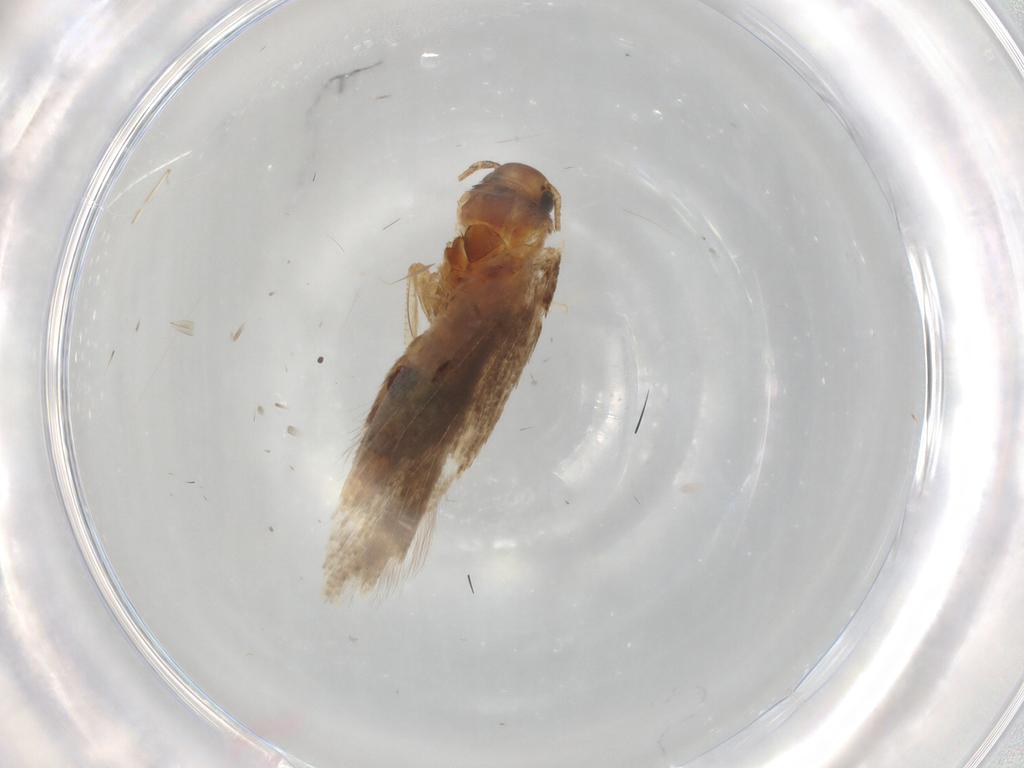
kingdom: Animalia
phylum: Arthropoda
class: Insecta
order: Lepidoptera
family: Gelechiidae
